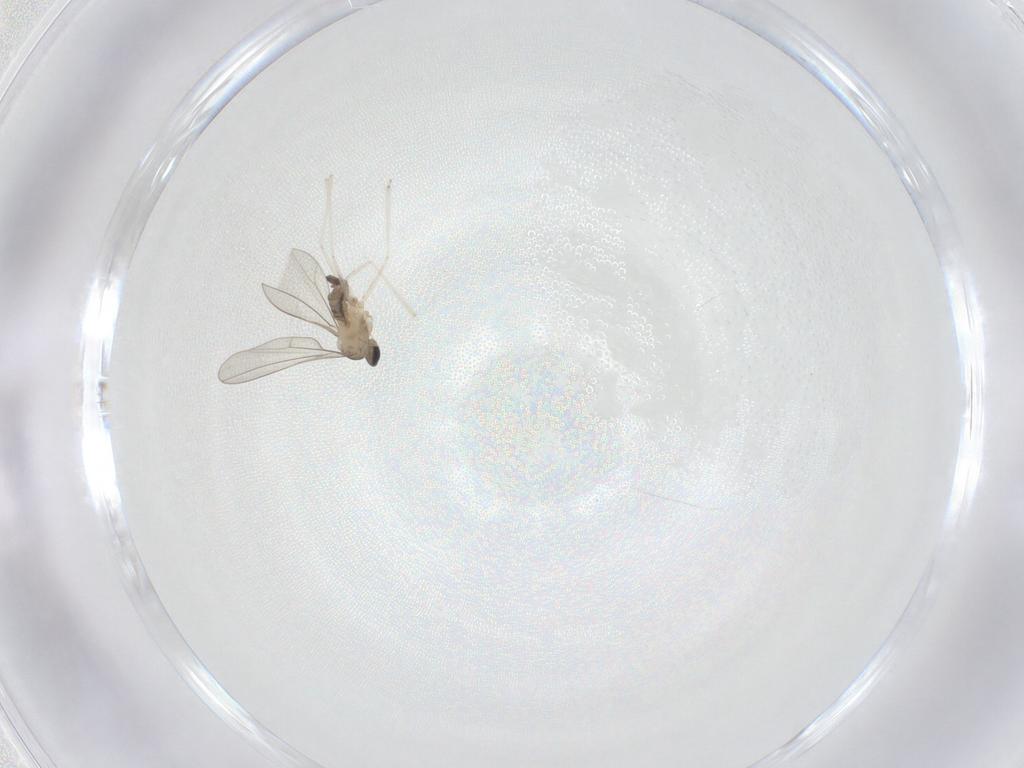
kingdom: Animalia
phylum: Arthropoda
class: Insecta
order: Diptera
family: Cecidomyiidae
